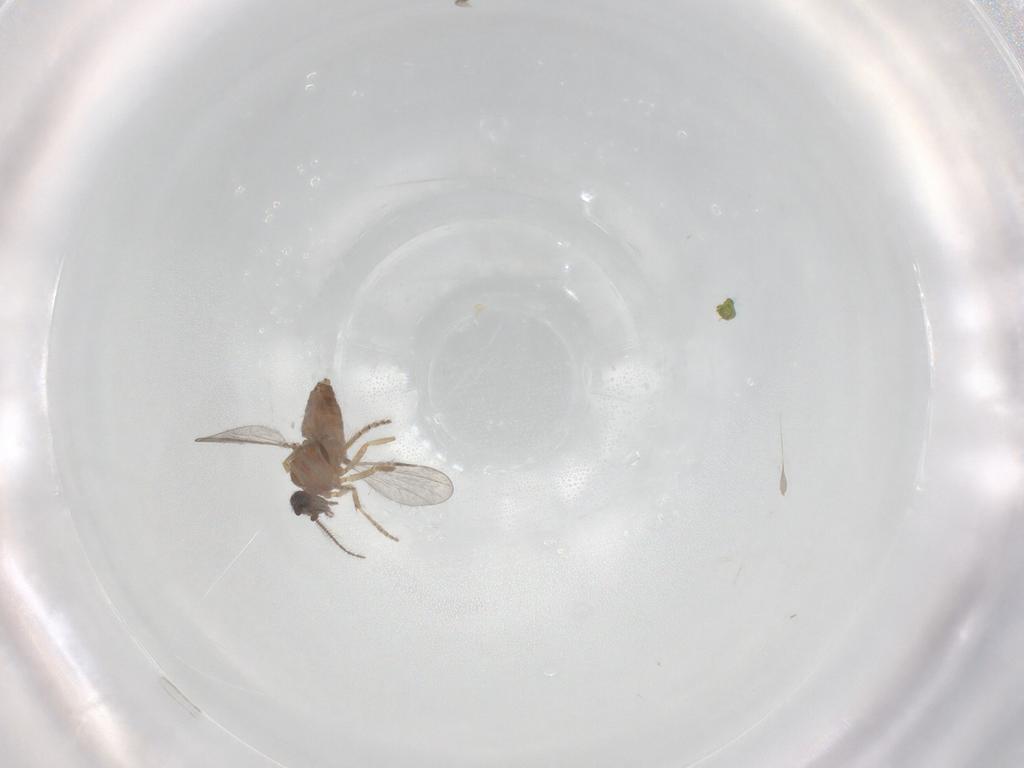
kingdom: Animalia
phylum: Arthropoda
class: Insecta
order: Diptera
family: Ceratopogonidae
